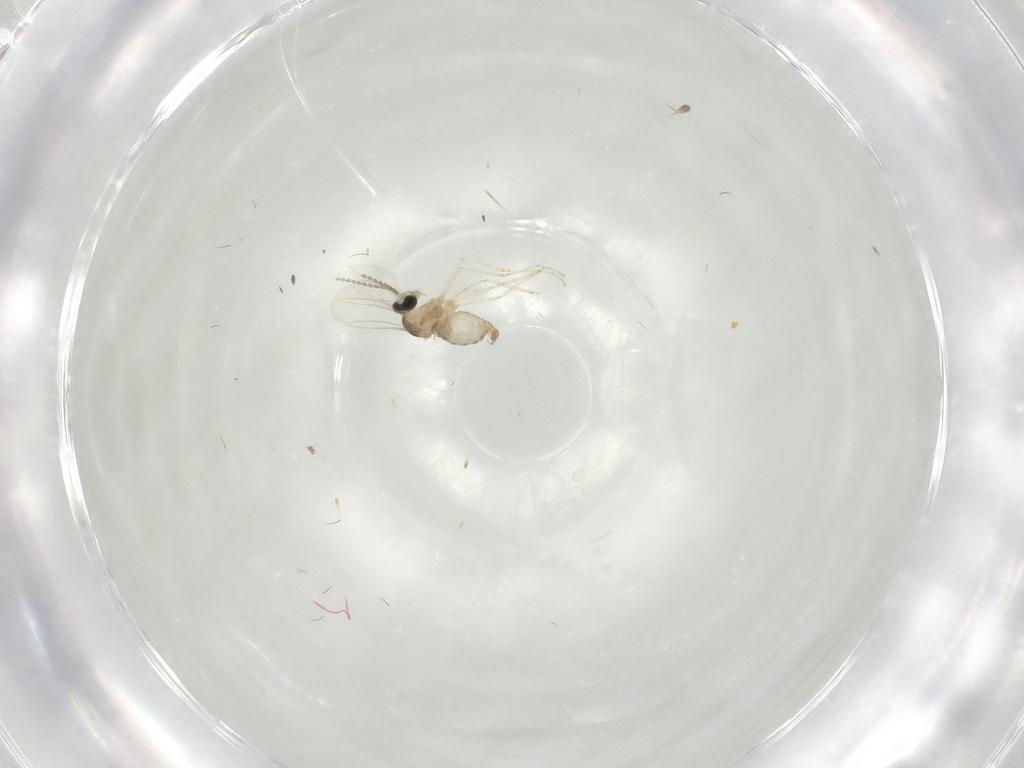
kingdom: Animalia
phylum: Arthropoda
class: Insecta
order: Diptera
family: Cecidomyiidae
